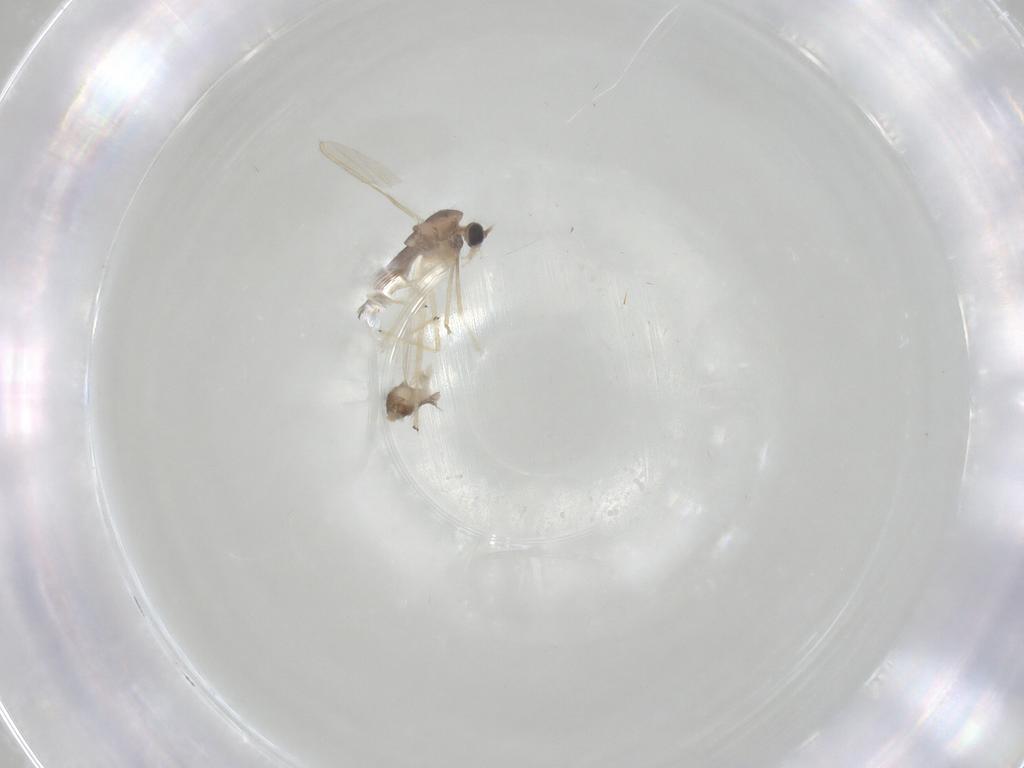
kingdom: Animalia
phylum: Arthropoda
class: Insecta
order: Diptera
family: Chironomidae
